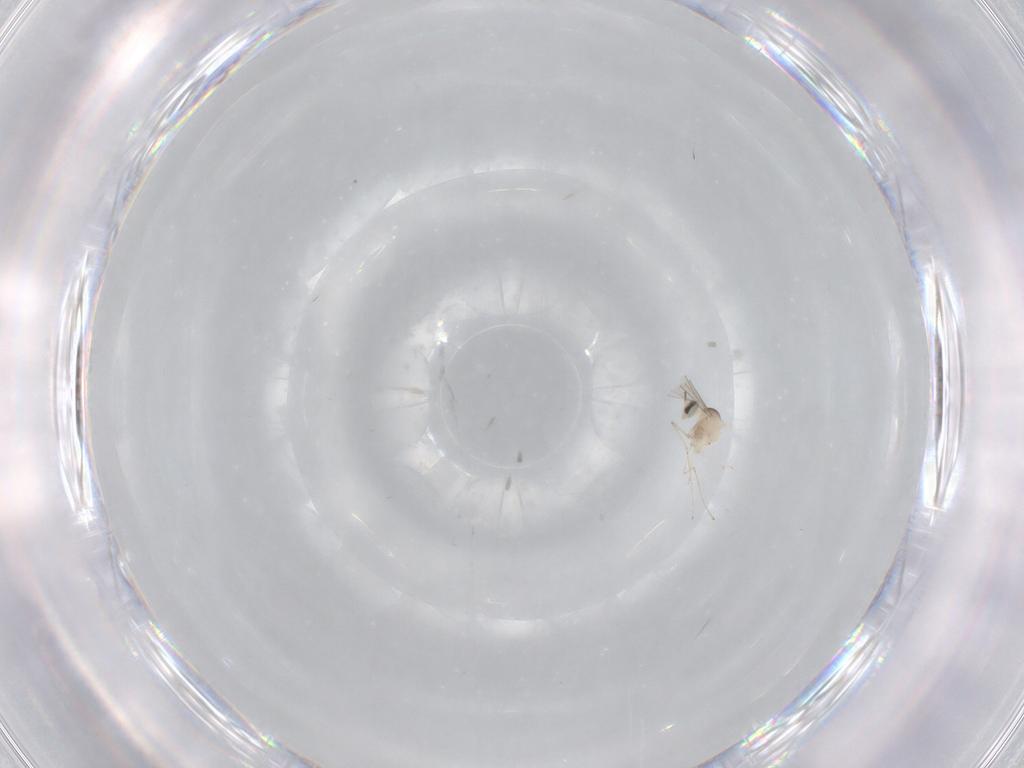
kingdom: Animalia
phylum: Arthropoda
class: Insecta
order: Diptera
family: Cecidomyiidae
